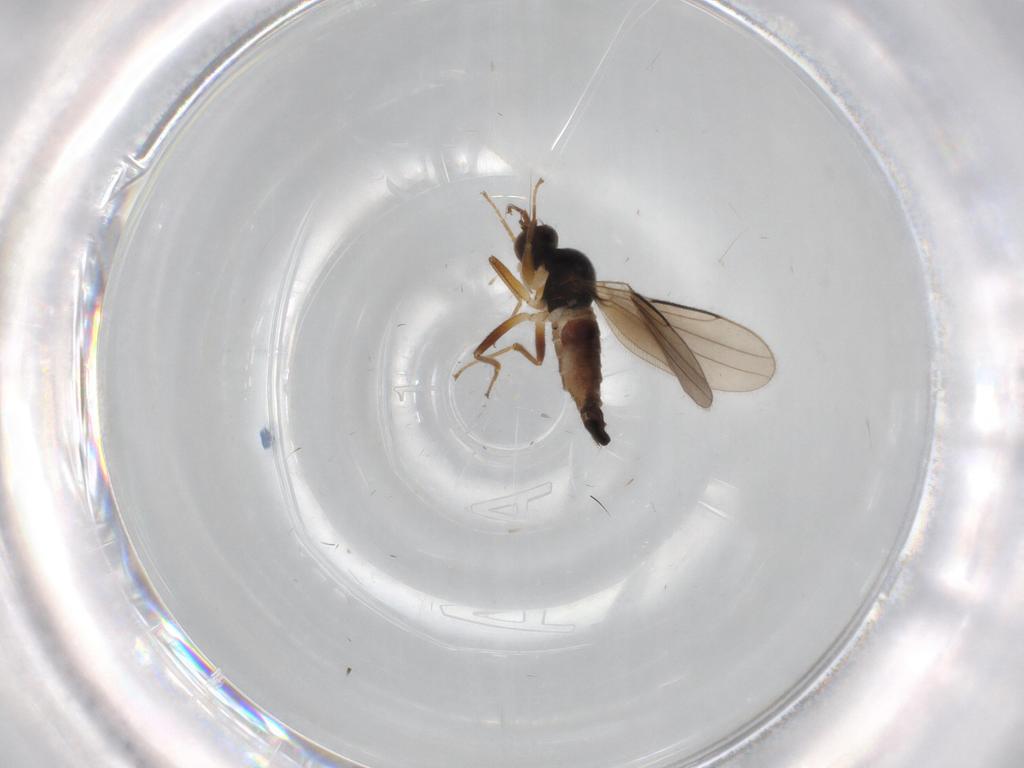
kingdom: Animalia
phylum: Arthropoda
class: Insecta
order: Diptera
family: Hybotidae
